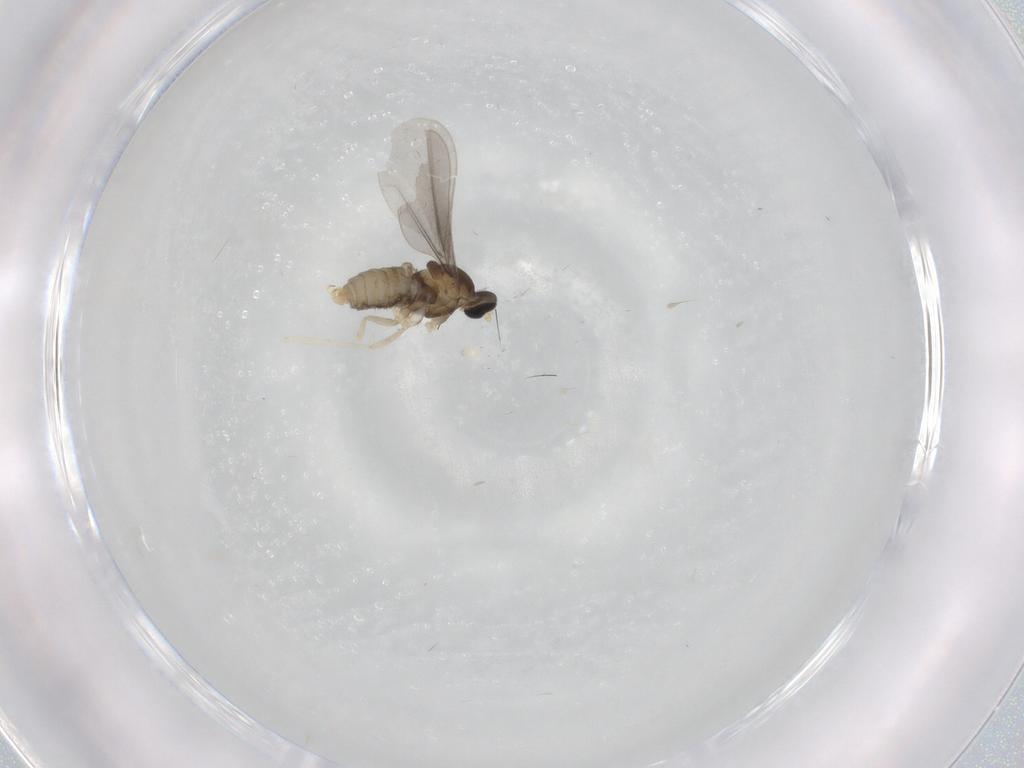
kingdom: Animalia
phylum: Arthropoda
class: Insecta
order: Diptera
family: Cecidomyiidae
